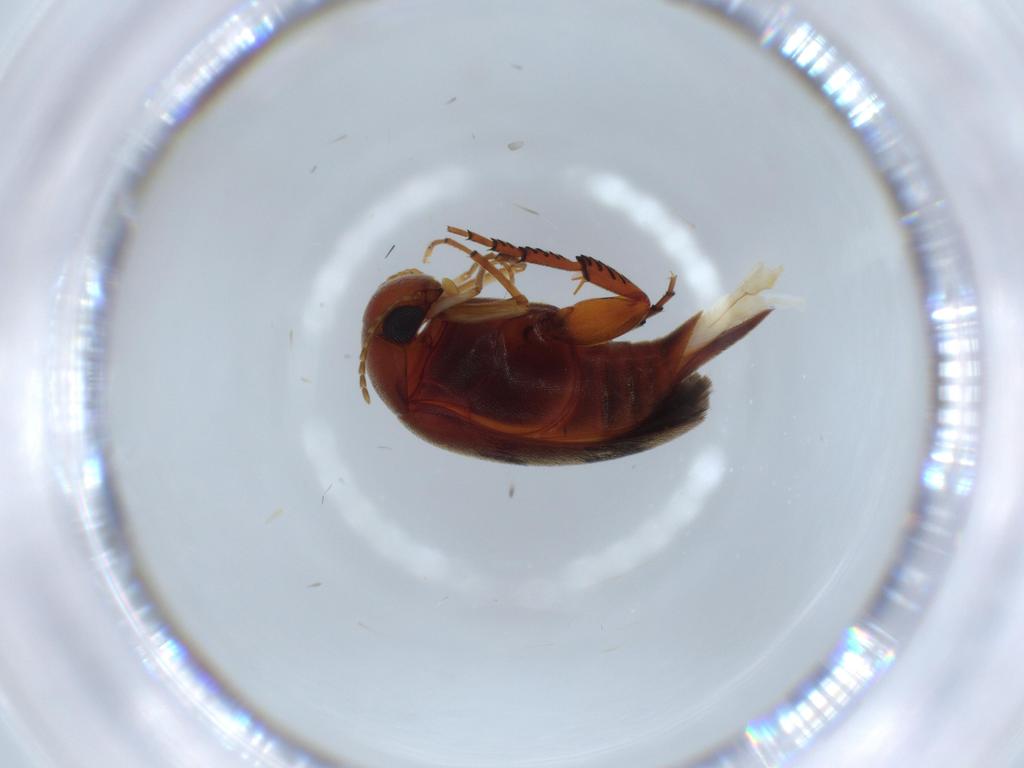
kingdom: Animalia
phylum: Arthropoda
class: Insecta
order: Coleoptera
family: Mordellidae
